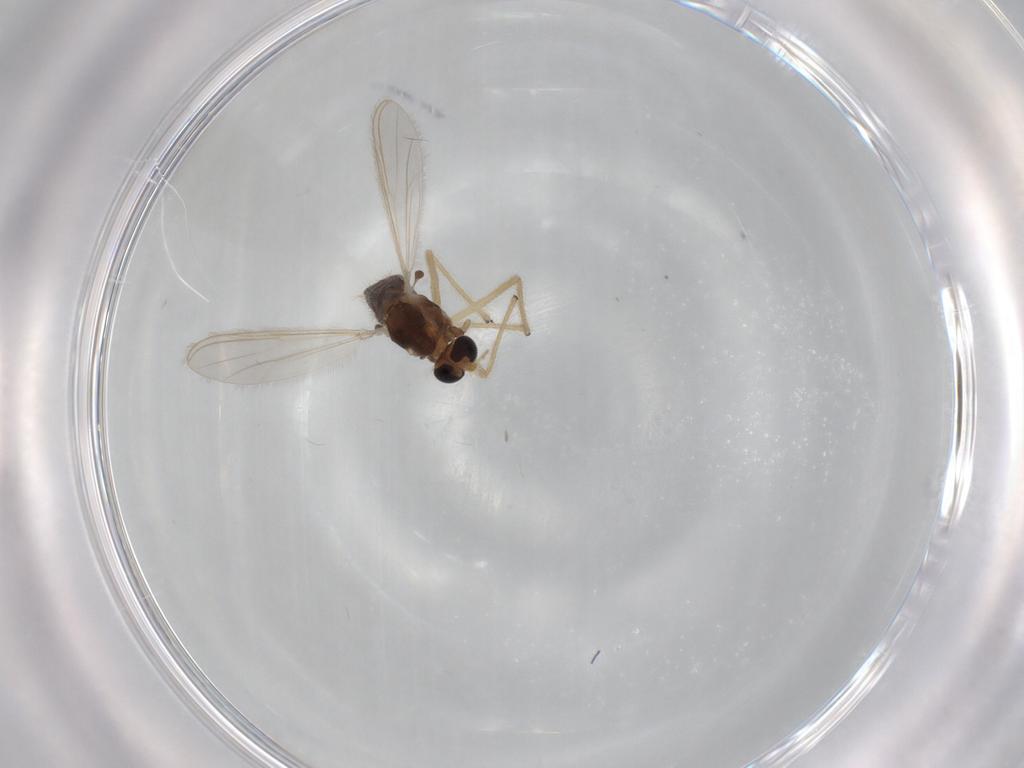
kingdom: Animalia
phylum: Arthropoda
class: Insecta
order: Diptera
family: Chironomidae
